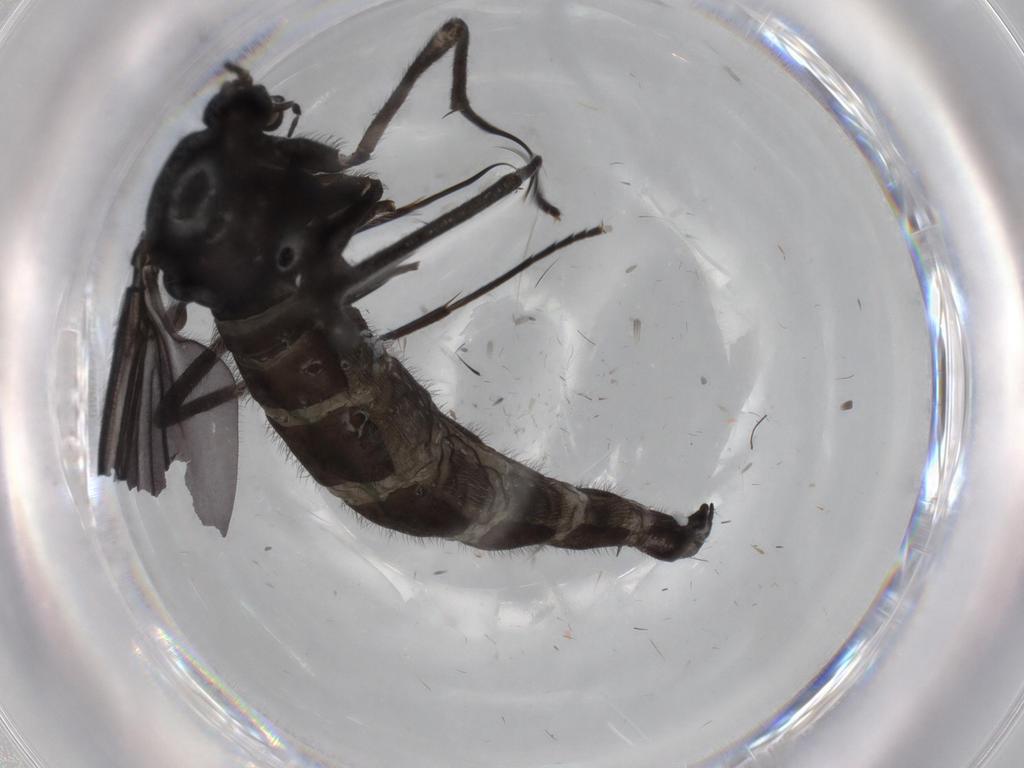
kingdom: Animalia
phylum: Arthropoda
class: Insecta
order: Diptera
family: Sciaridae
